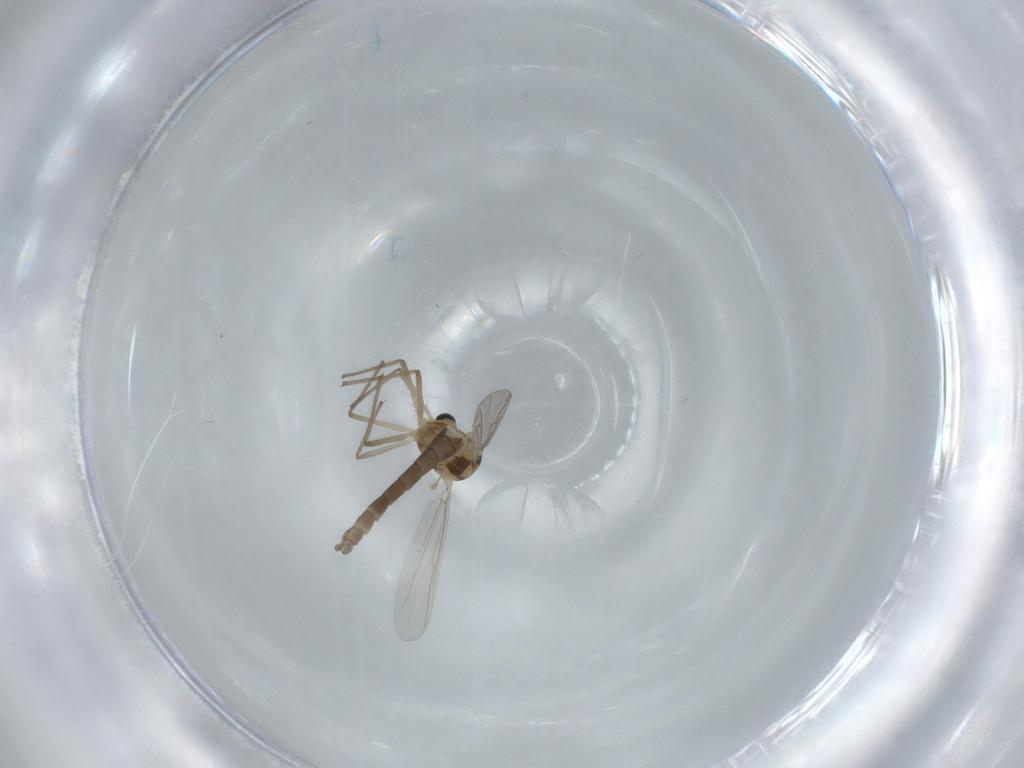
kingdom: Animalia
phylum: Arthropoda
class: Insecta
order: Diptera
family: Chironomidae
